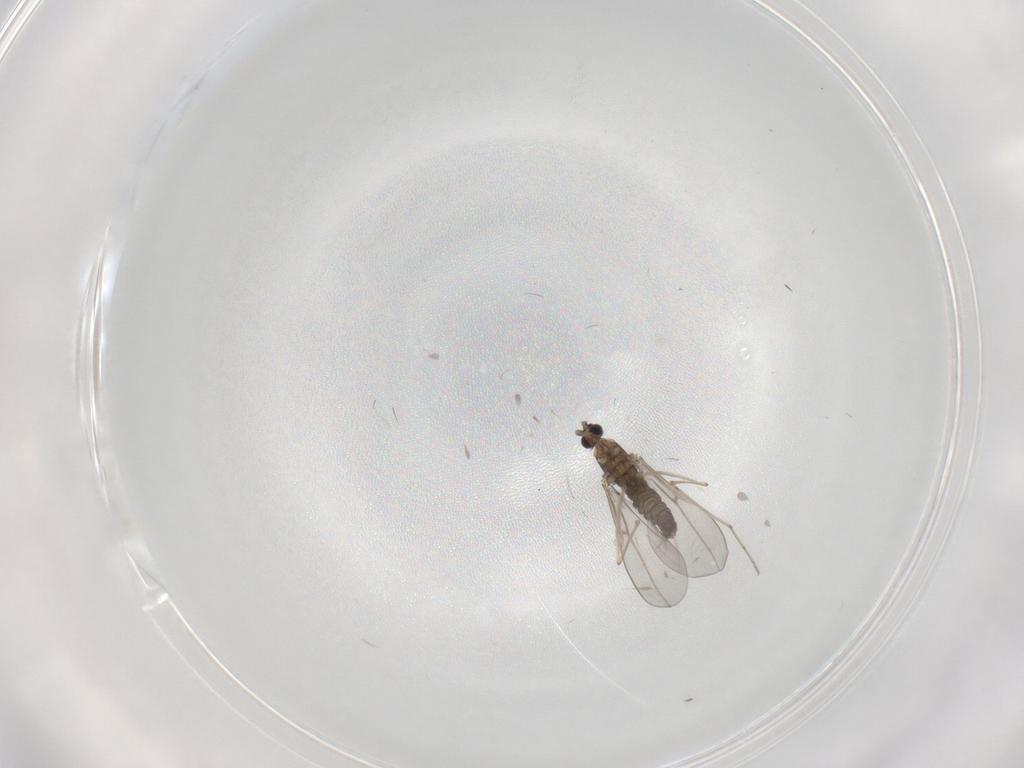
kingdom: Animalia
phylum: Arthropoda
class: Insecta
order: Diptera
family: Cecidomyiidae
